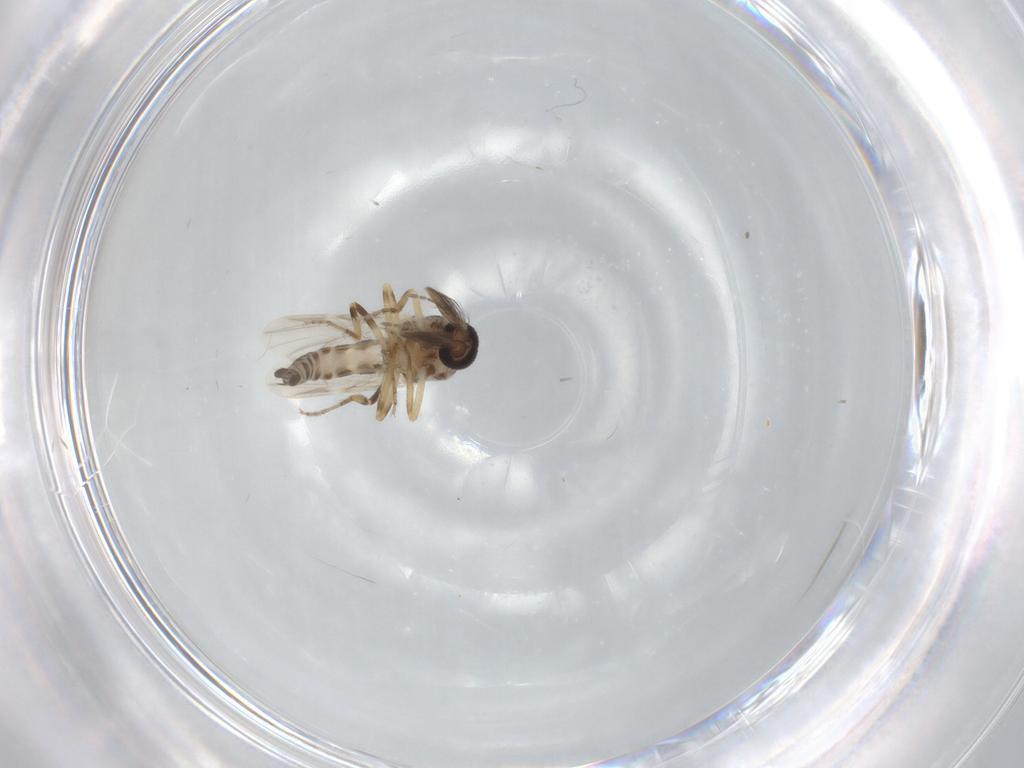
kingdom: Animalia
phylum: Arthropoda
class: Insecta
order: Diptera
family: Ceratopogonidae
